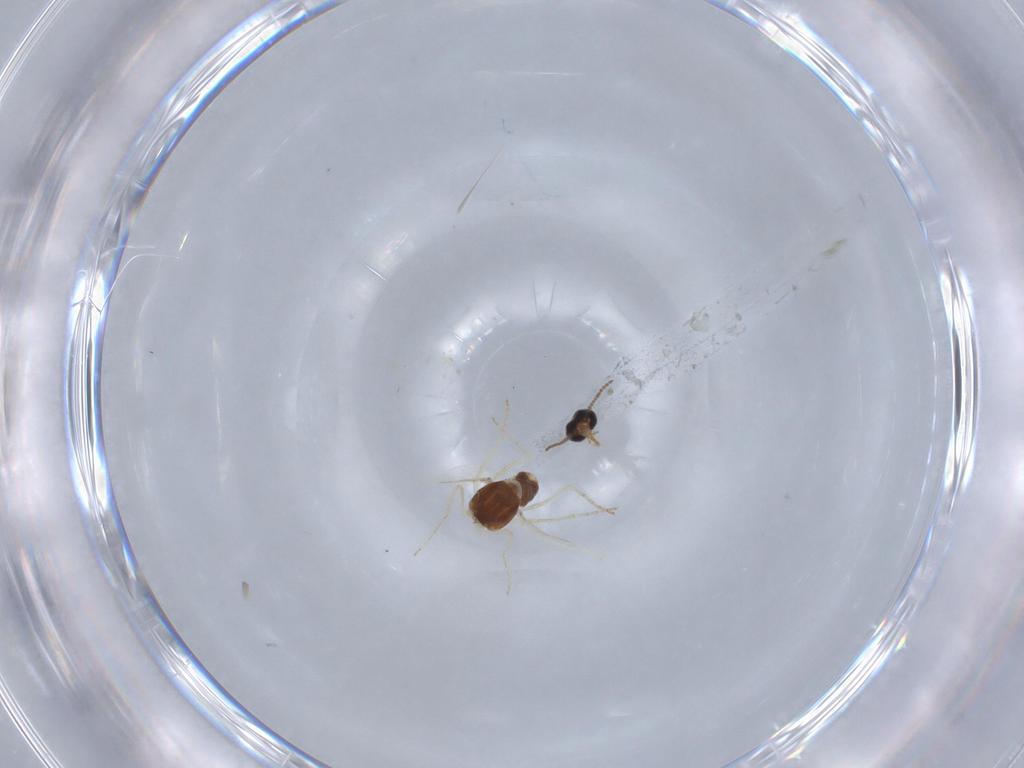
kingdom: Animalia
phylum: Arthropoda
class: Insecta
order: Diptera
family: Ceratopogonidae
